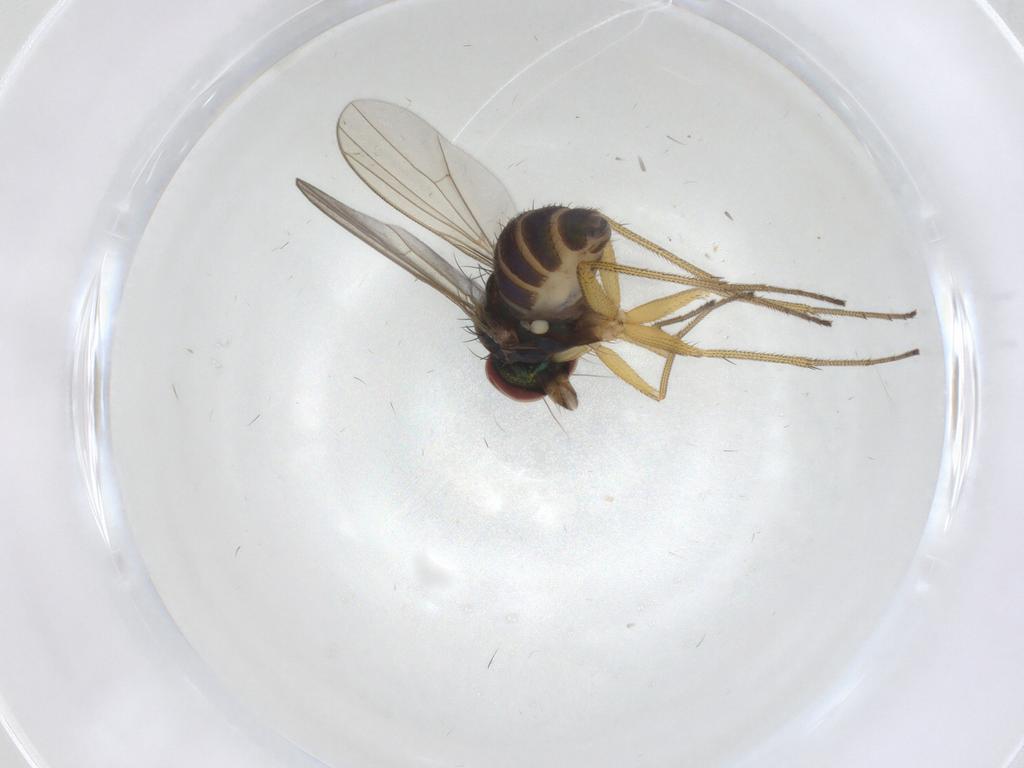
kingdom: Animalia
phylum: Arthropoda
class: Insecta
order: Diptera
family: Dolichopodidae
